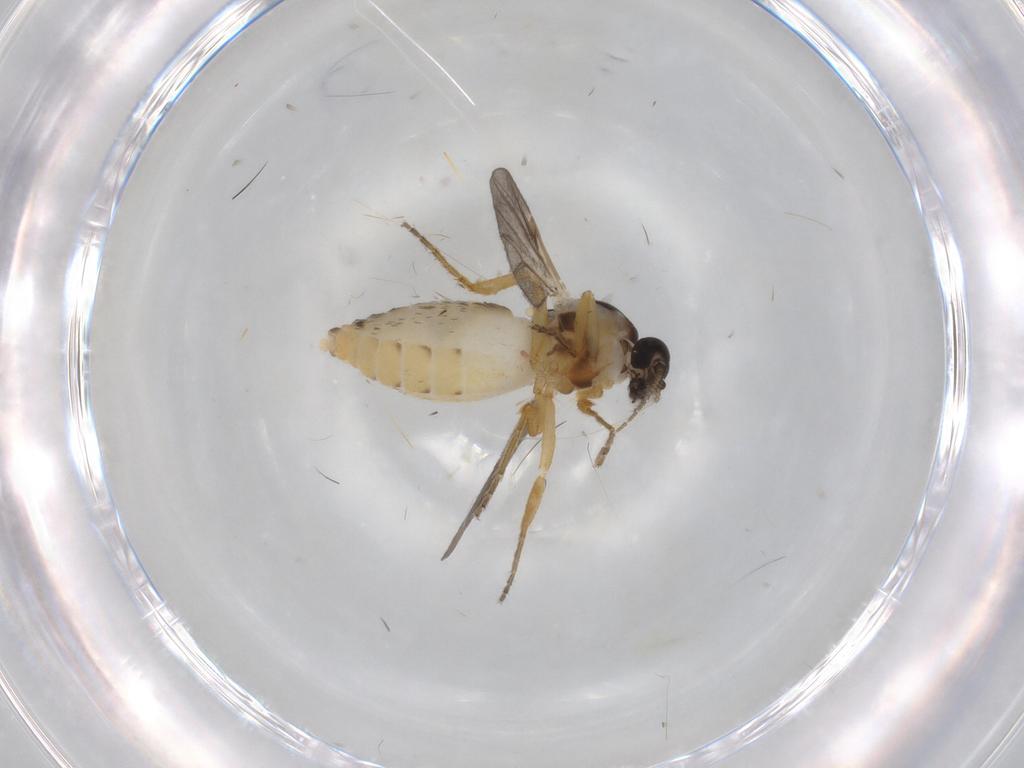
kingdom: Animalia
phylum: Arthropoda
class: Insecta
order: Diptera
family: Ceratopogonidae
